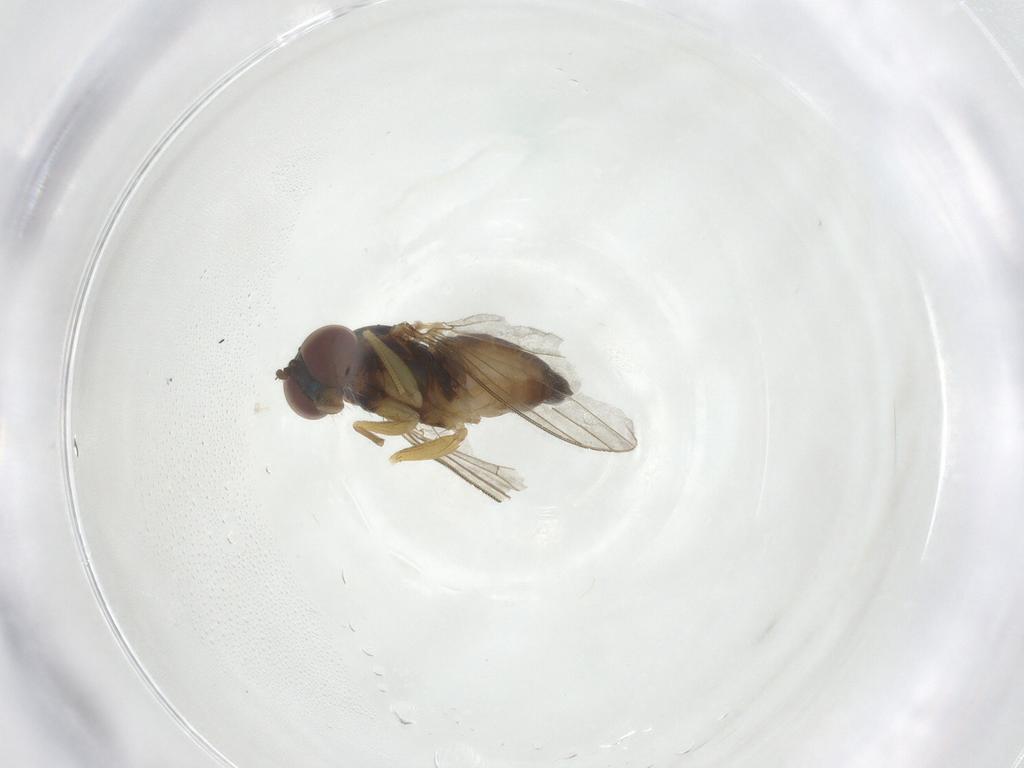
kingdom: Animalia
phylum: Arthropoda
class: Insecta
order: Diptera
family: Dolichopodidae
